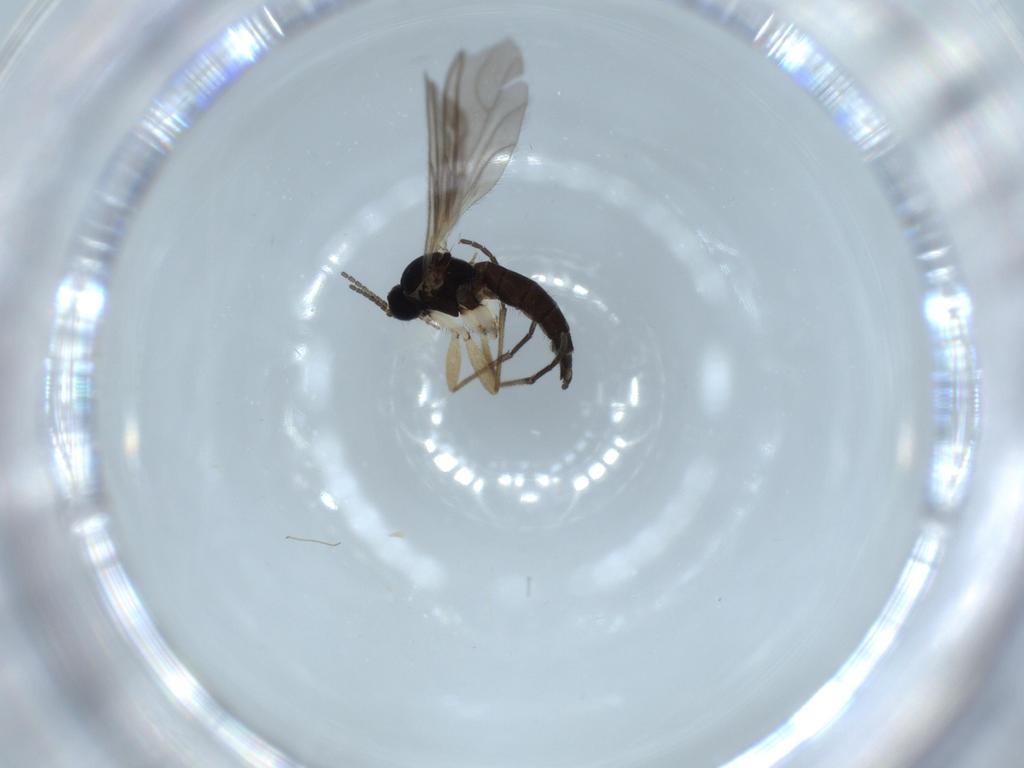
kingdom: Animalia
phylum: Arthropoda
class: Insecta
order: Diptera
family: Sciaridae
